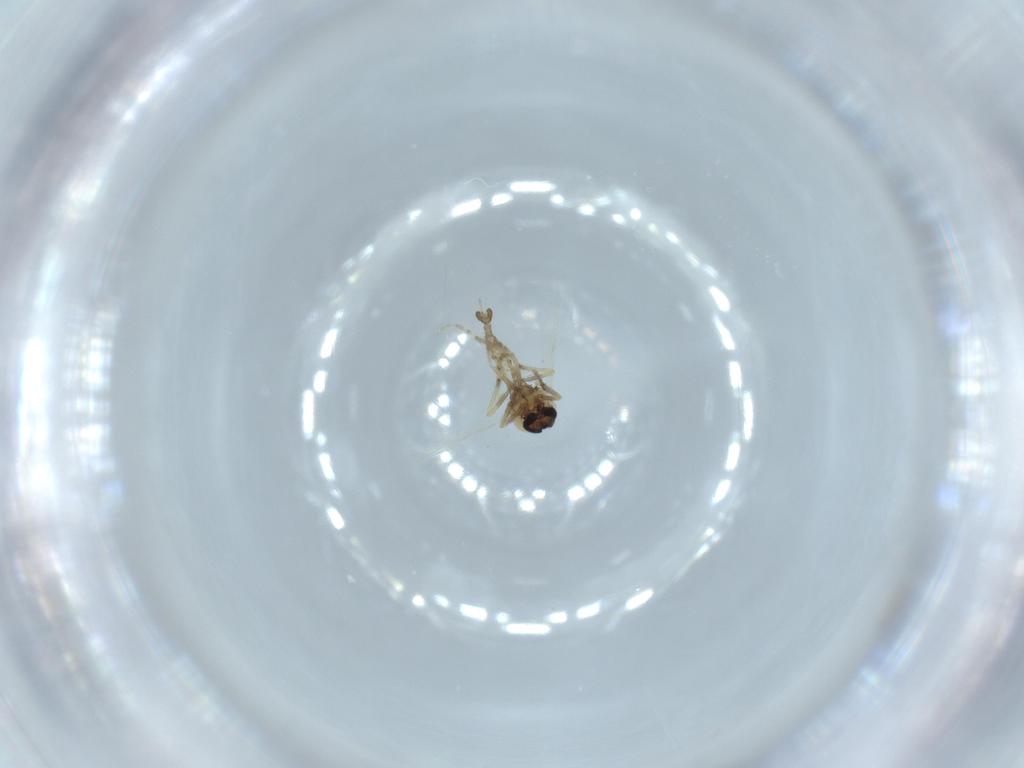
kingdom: Animalia
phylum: Arthropoda
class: Insecta
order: Diptera
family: Ceratopogonidae
